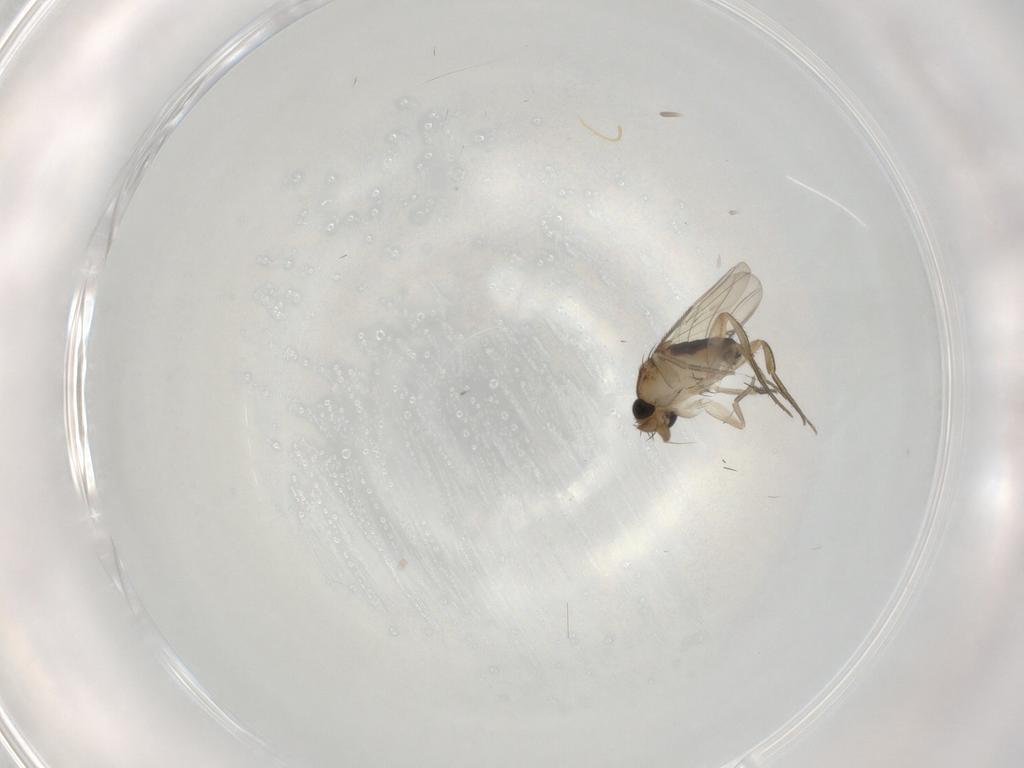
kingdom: Animalia
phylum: Arthropoda
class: Insecta
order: Diptera
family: Phoridae
